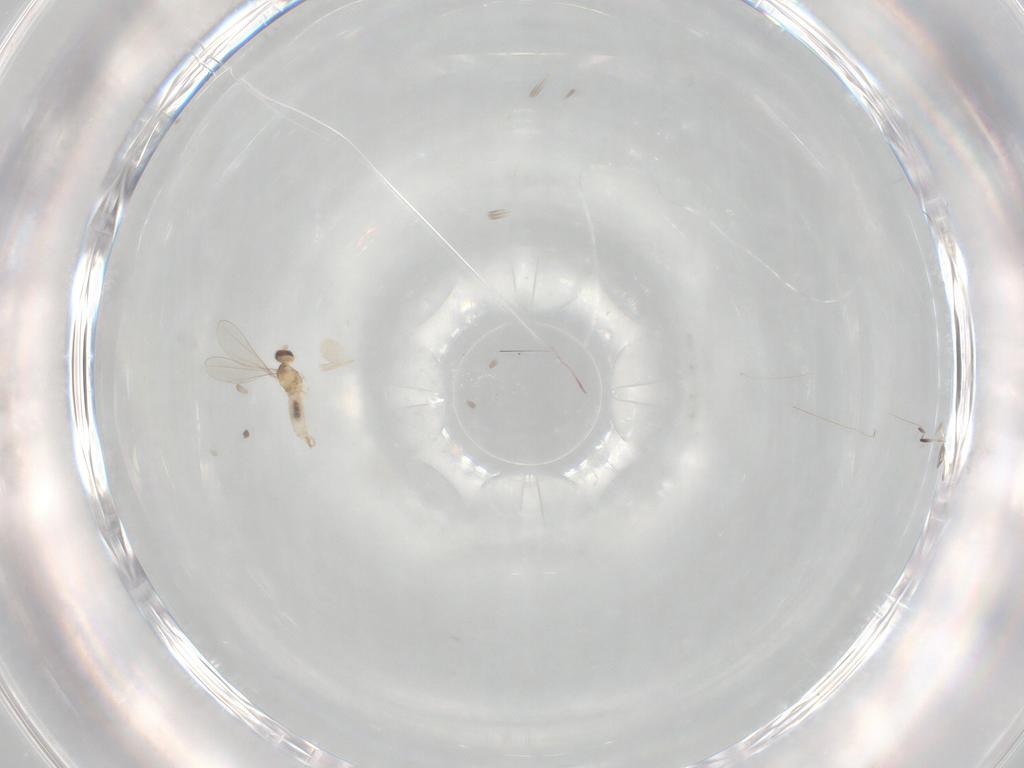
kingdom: Animalia
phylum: Arthropoda
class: Insecta
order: Diptera
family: Cecidomyiidae
